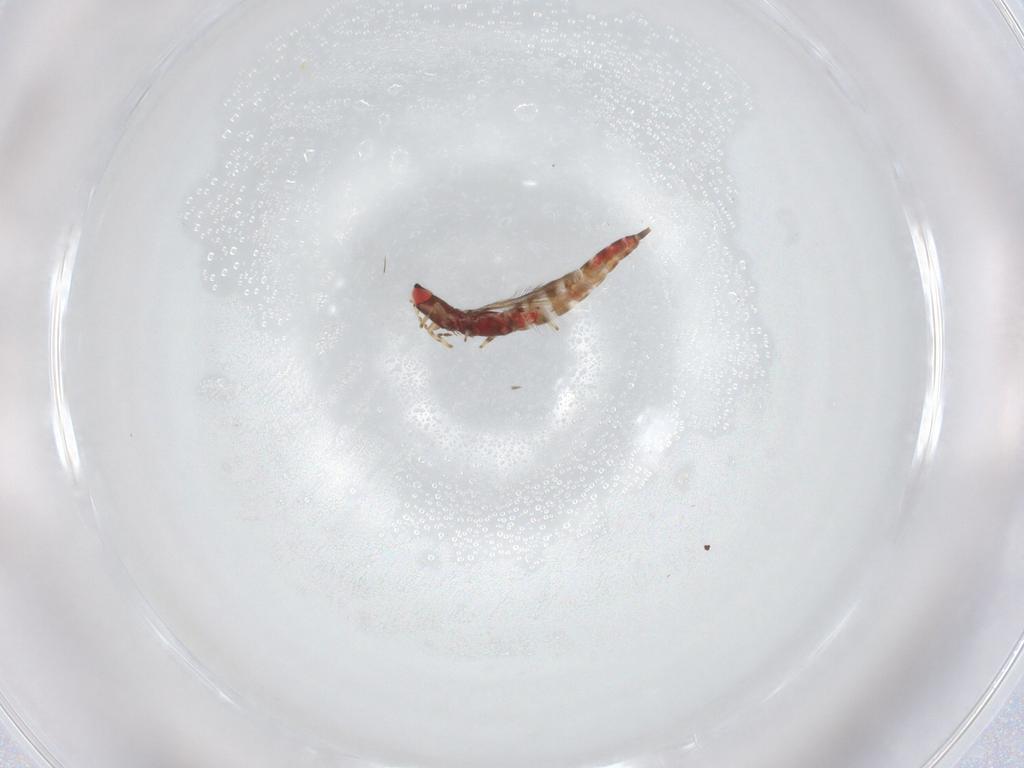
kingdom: Animalia
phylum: Arthropoda
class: Insecta
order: Thysanoptera
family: Phlaeothripidae
